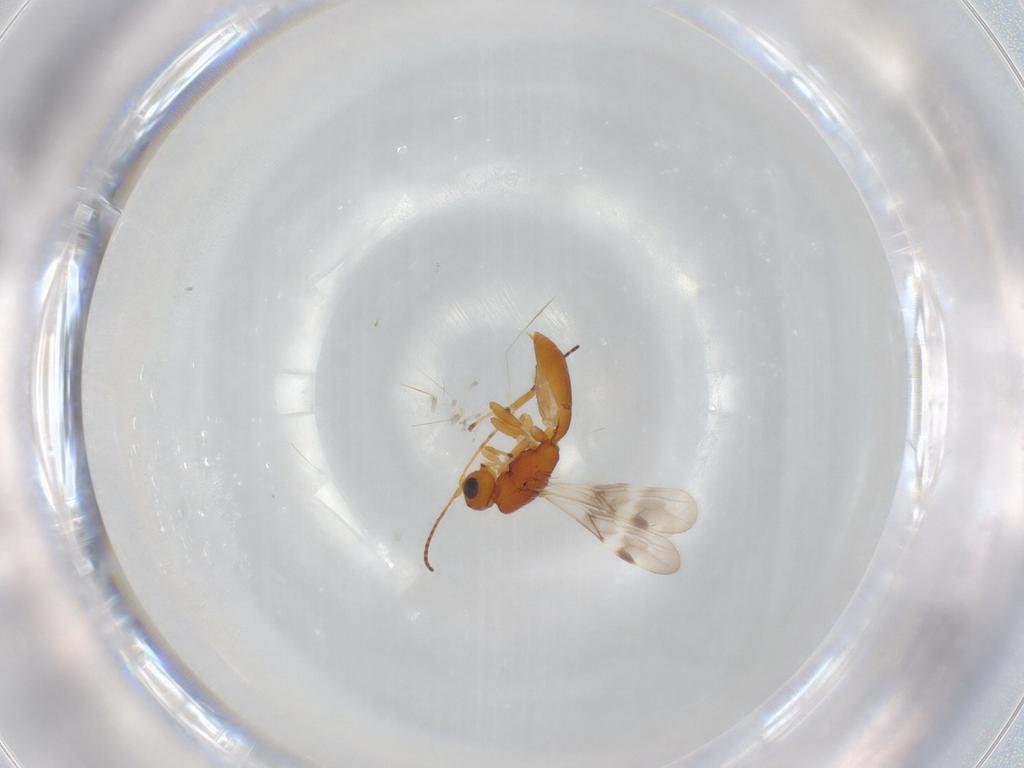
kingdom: Animalia
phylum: Arthropoda
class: Insecta
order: Hymenoptera
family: Braconidae
